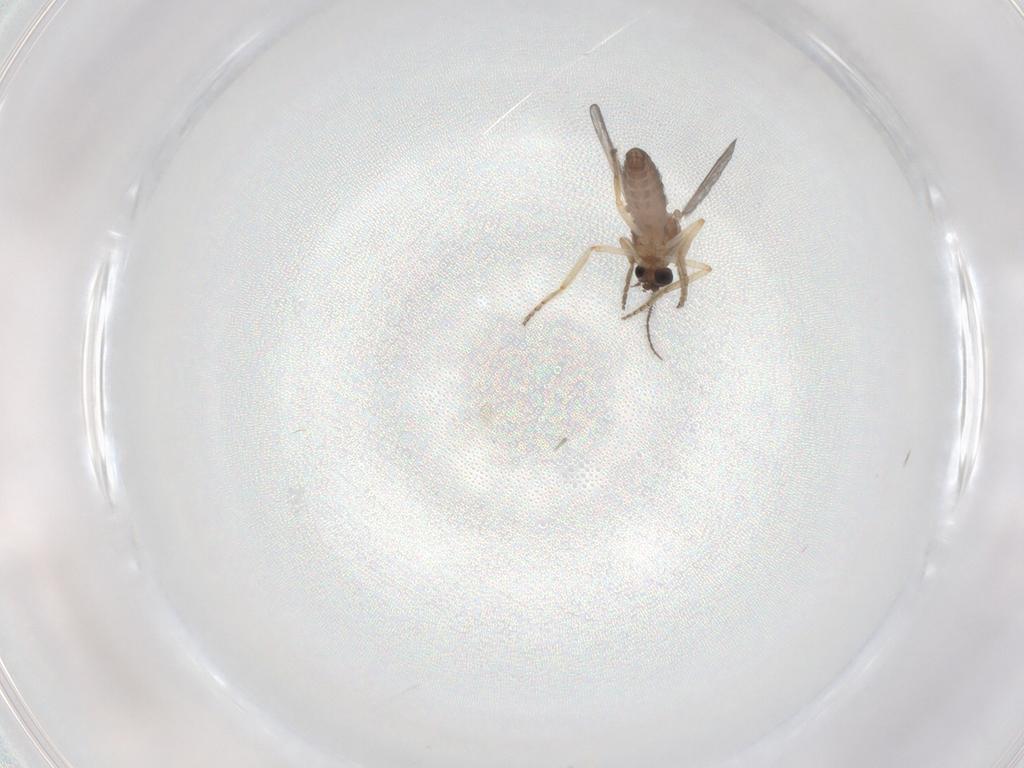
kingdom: Animalia
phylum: Arthropoda
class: Insecta
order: Diptera
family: Ceratopogonidae
